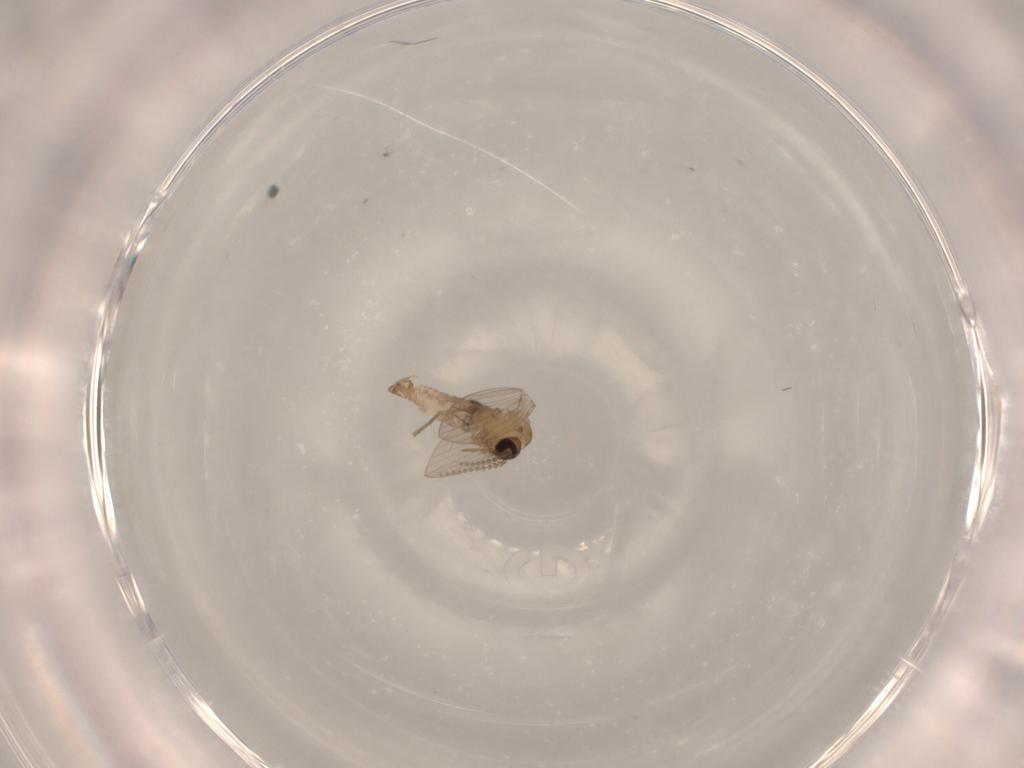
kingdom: Animalia
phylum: Arthropoda
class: Insecta
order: Diptera
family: Psychodidae
